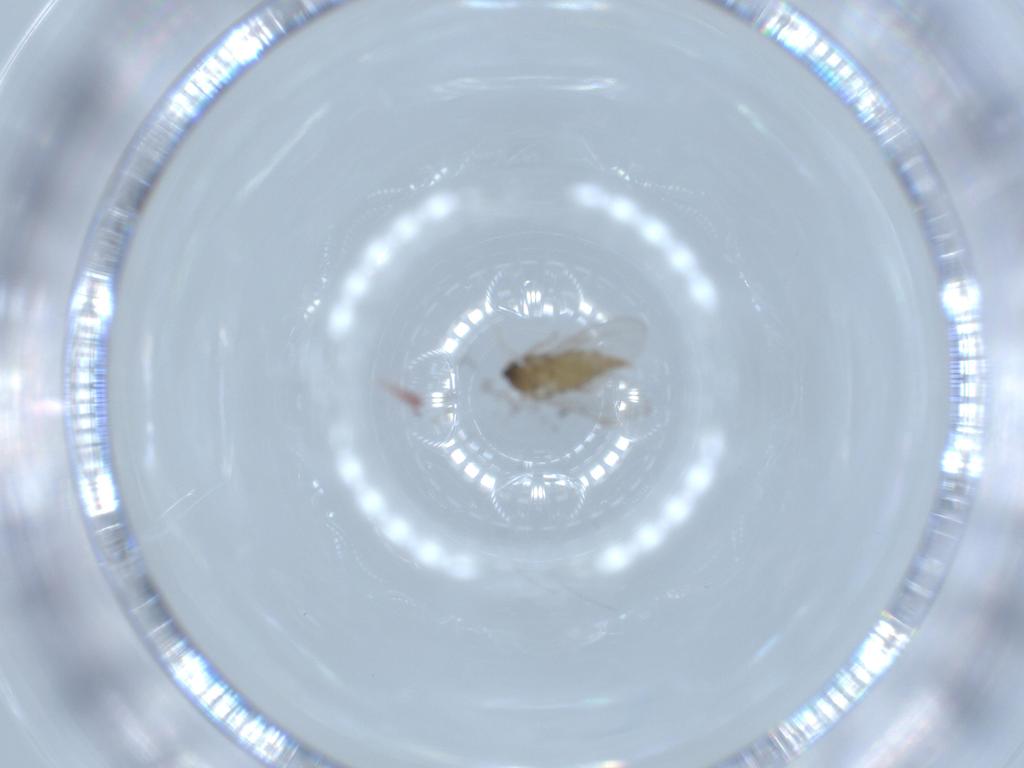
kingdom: Animalia
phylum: Arthropoda
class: Insecta
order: Diptera
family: Cecidomyiidae
